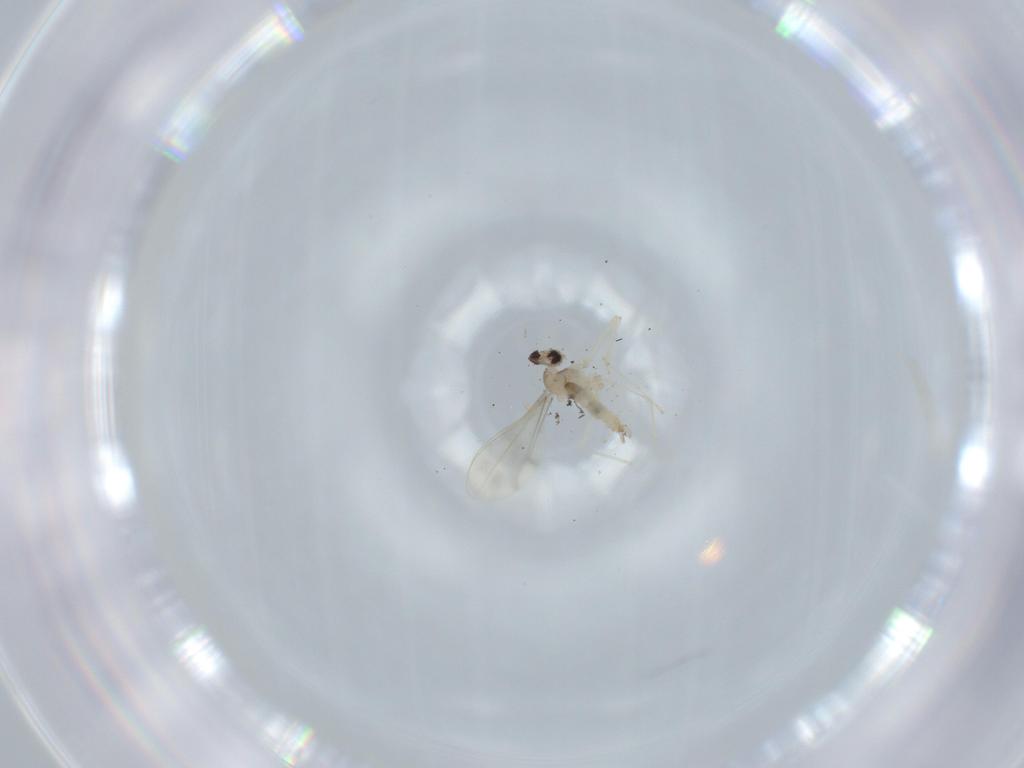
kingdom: Animalia
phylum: Arthropoda
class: Insecta
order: Diptera
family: Cecidomyiidae
